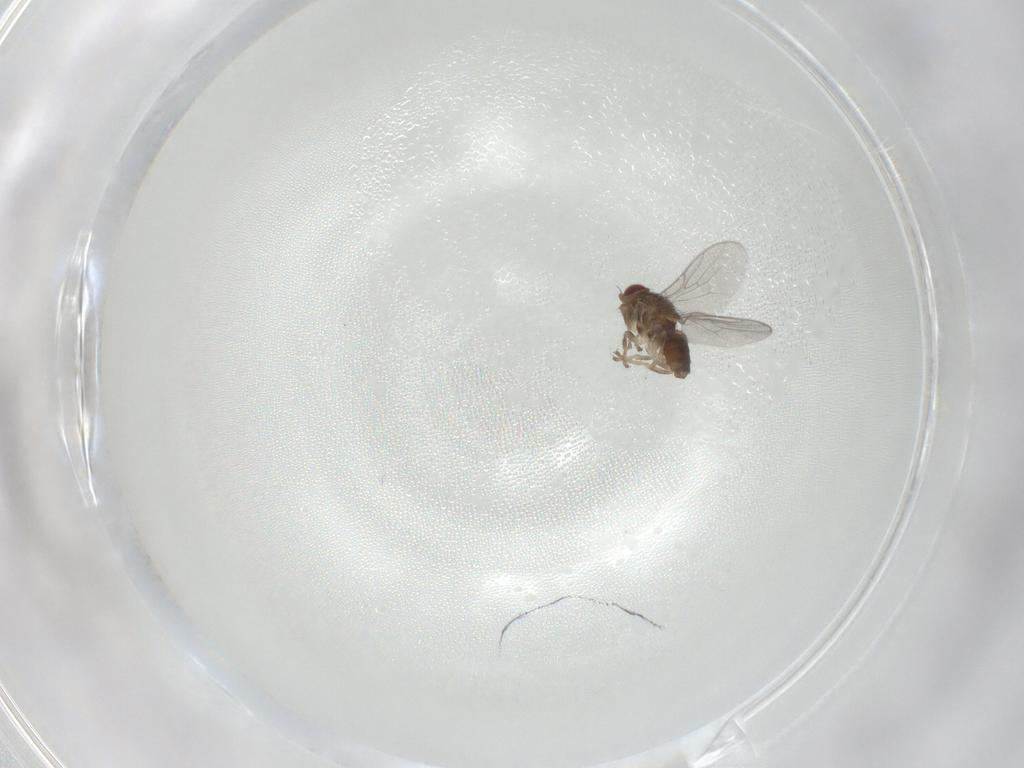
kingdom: Animalia
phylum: Arthropoda
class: Insecta
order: Diptera
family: Chloropidae
